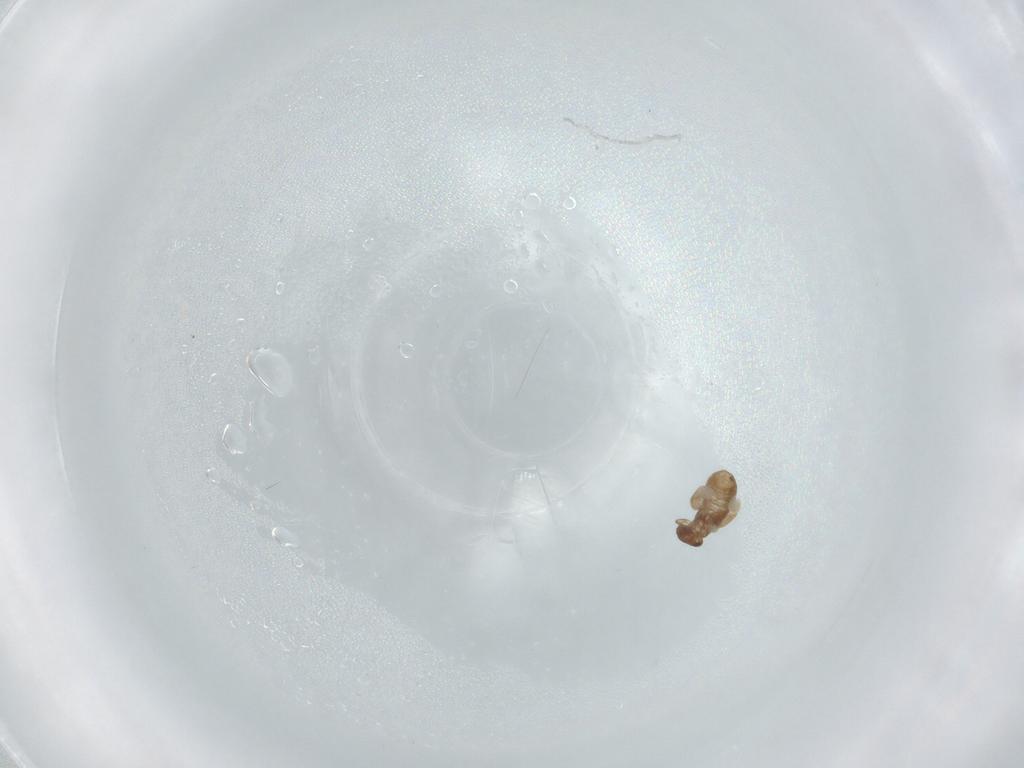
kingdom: Animalia
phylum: Arthropoda
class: Insecta
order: Psocodea
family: Liposcelididae
